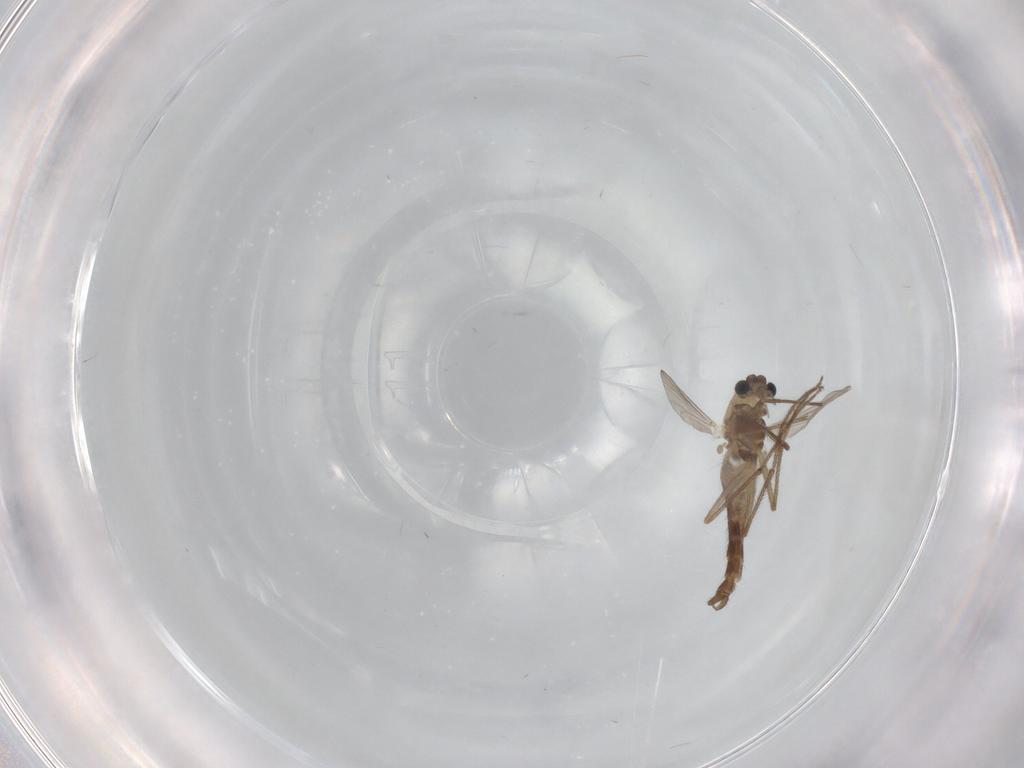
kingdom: Animalia
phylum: Arthropoda
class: Insecta
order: Diptera
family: Chironomidae
